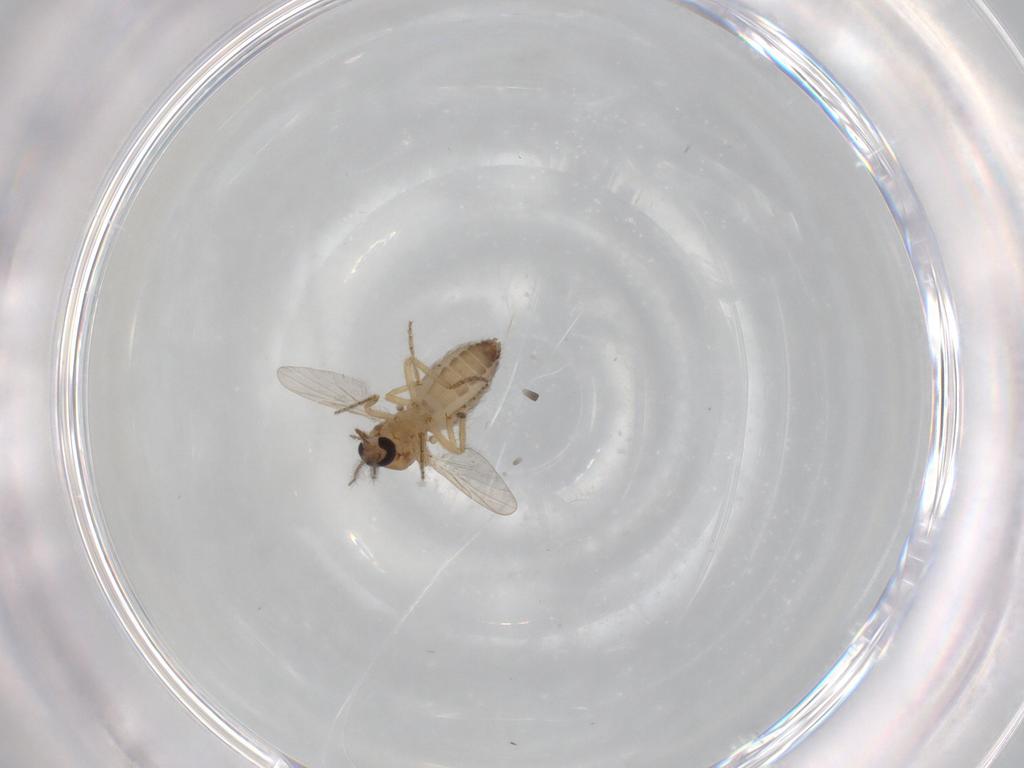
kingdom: Animalia
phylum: Arthropoda
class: Insecta
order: Diptera
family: Ceratopogonidae
